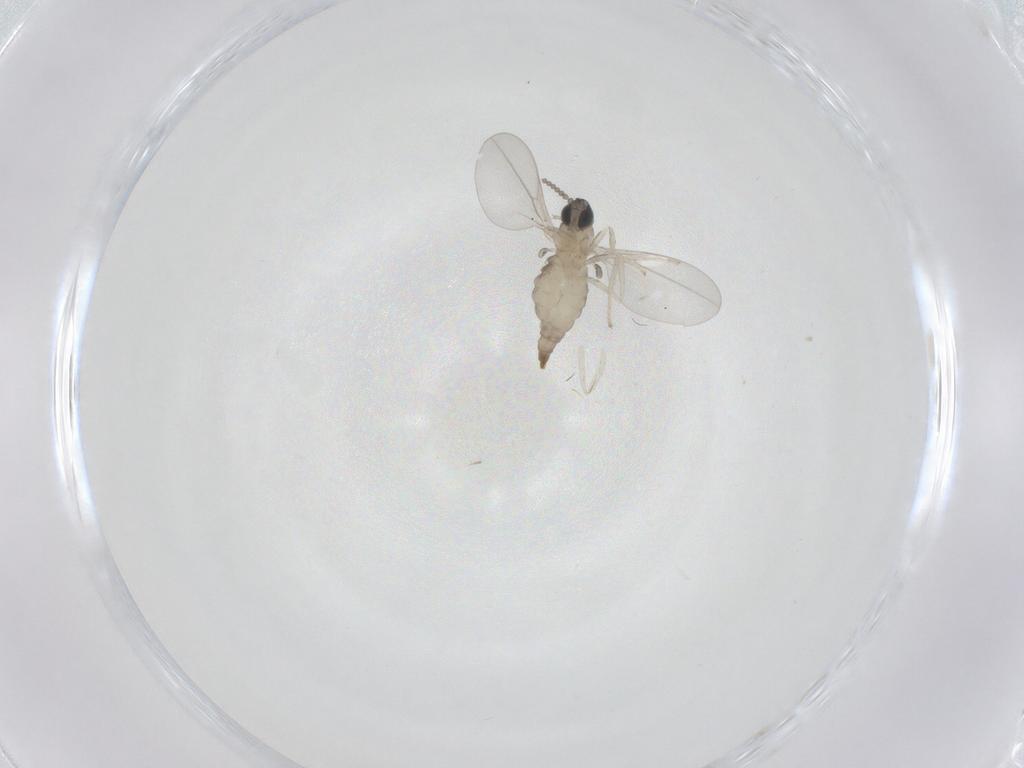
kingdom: Animalia
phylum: Arthropoda
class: Insecta
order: Diptera
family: Cecidomyiidae
